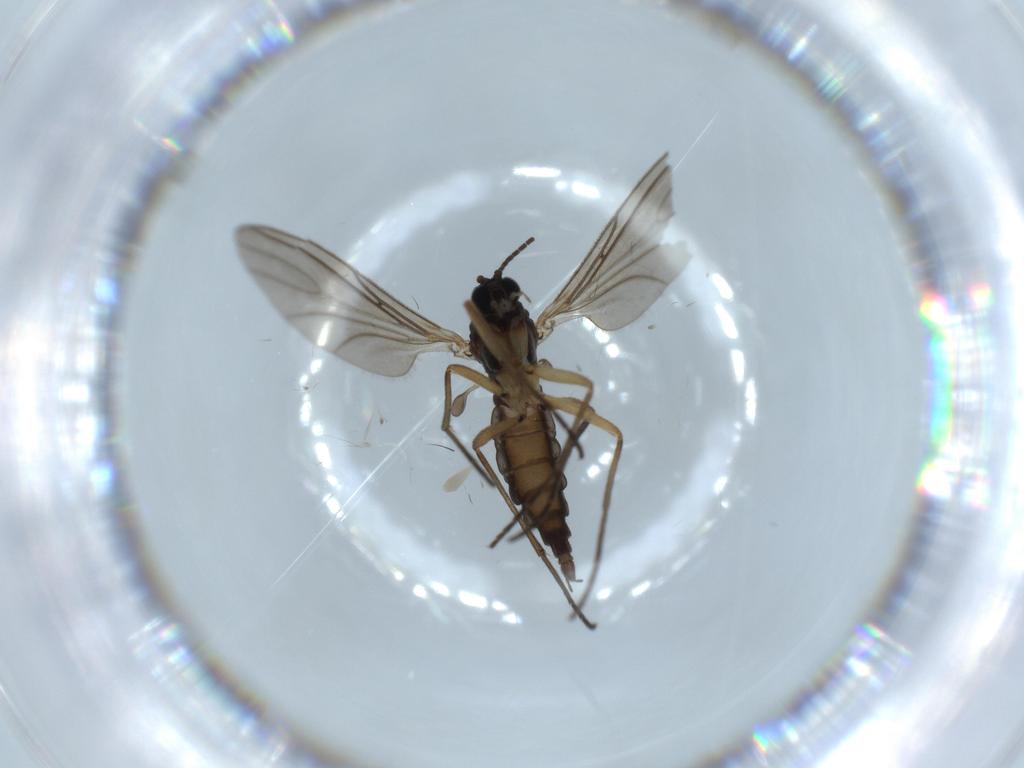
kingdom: Animalia
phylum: Arthropoda
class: Insecta
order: Diptera
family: Sciaridae
